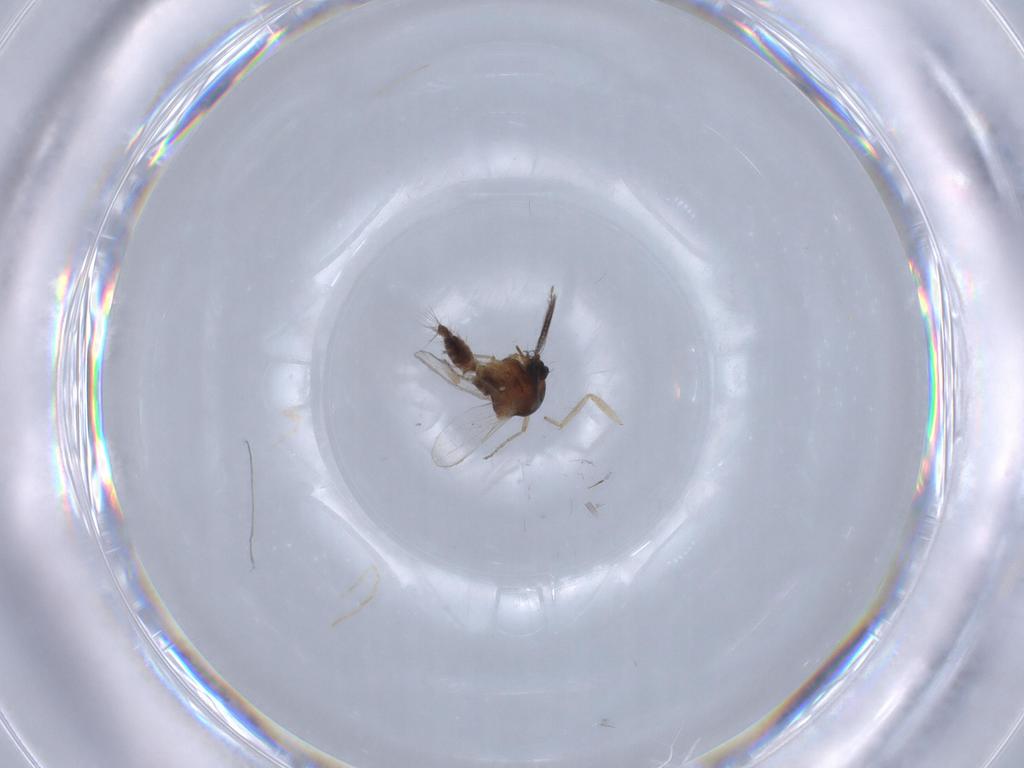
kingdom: Animalia
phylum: Arthropoda
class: Insecta
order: Diptera
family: Ceratopogonidae
